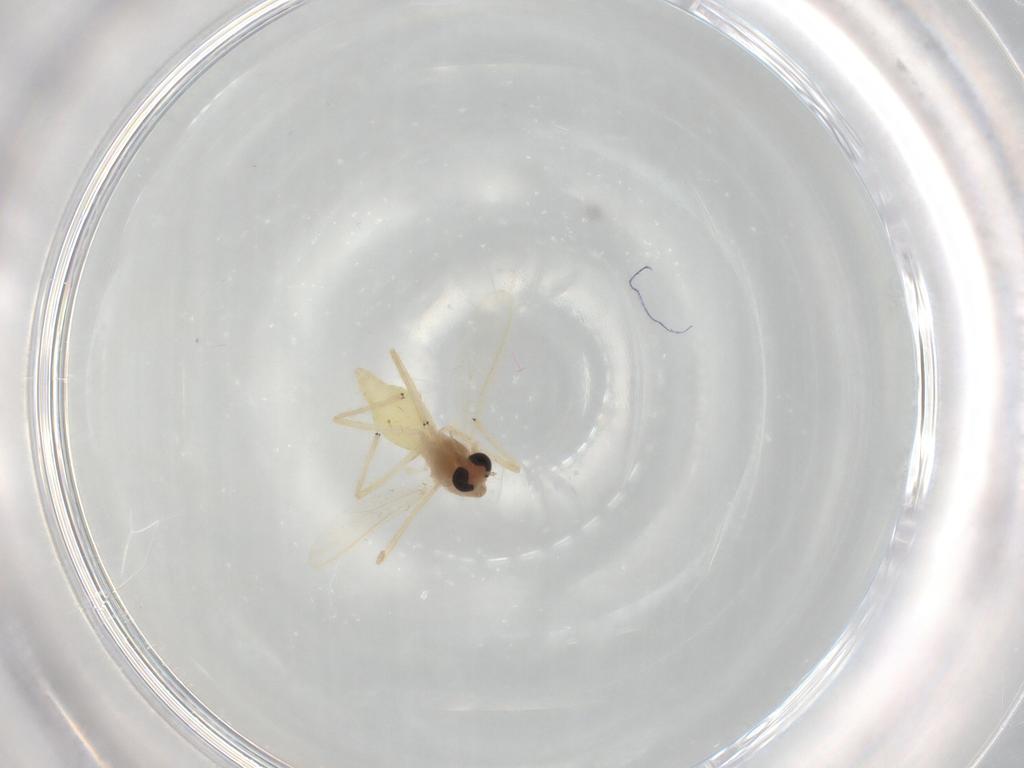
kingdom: Animalia
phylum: Arthropoda
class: Insecta
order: Diptera
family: Chironomidae
